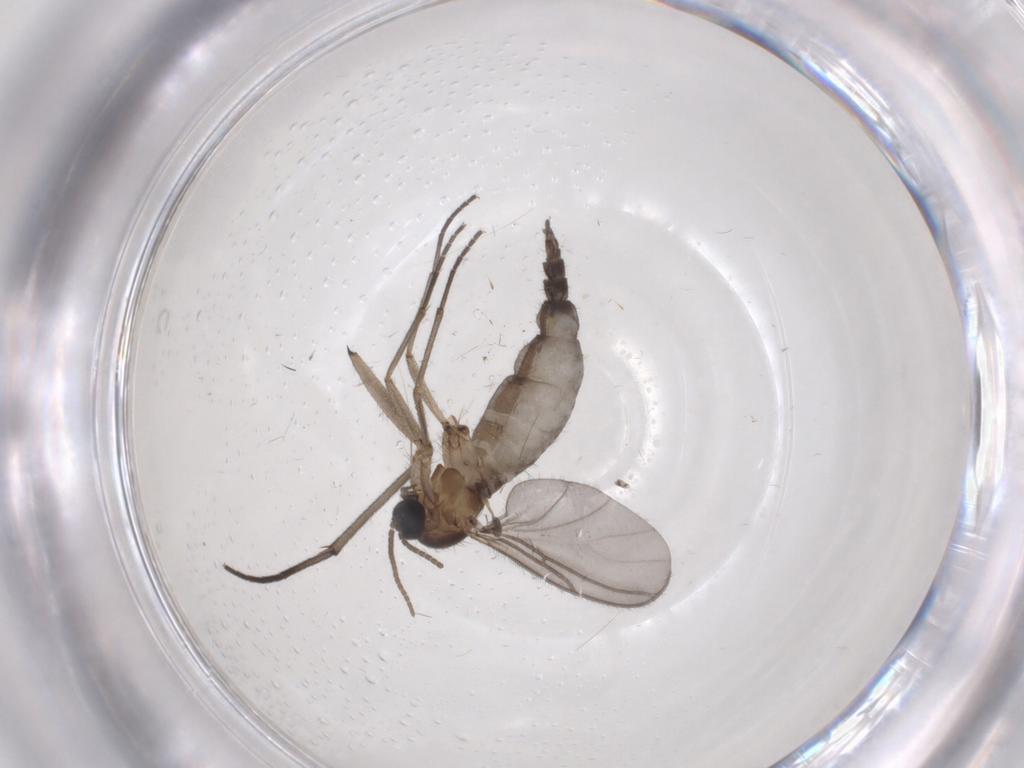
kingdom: Animalia
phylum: Arthropoda
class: Insecta
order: Diptera
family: Sciaridae
